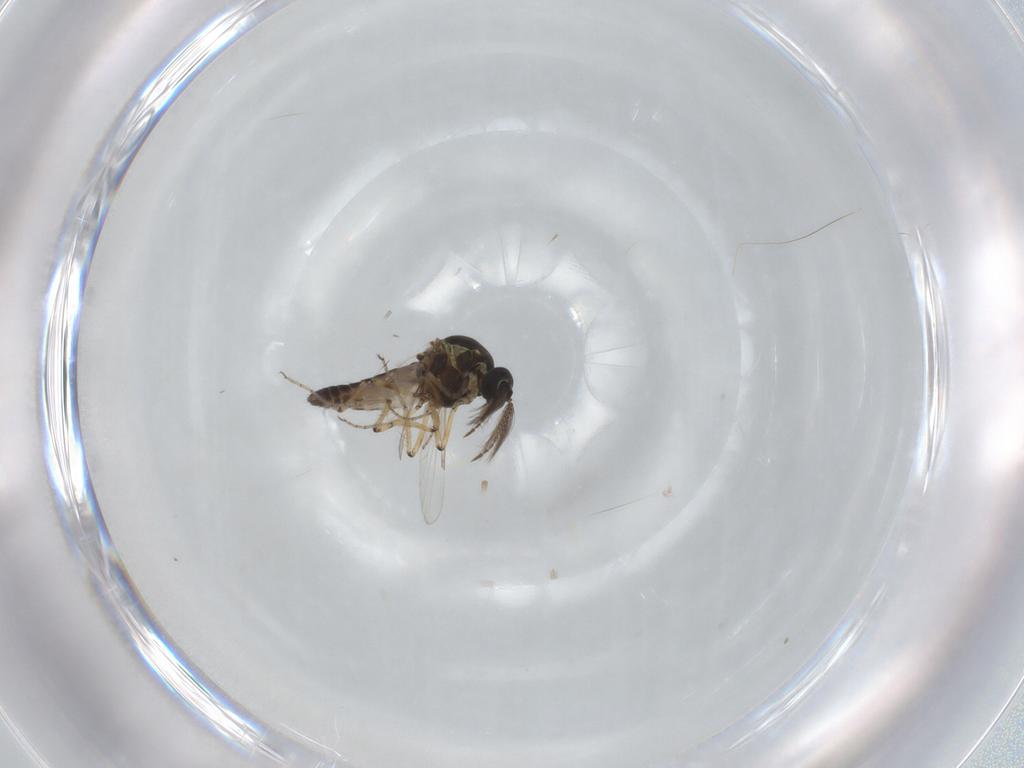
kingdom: Animalia
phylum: Arthropoda
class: Insecta
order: Diptera
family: Ceratopogonidae
